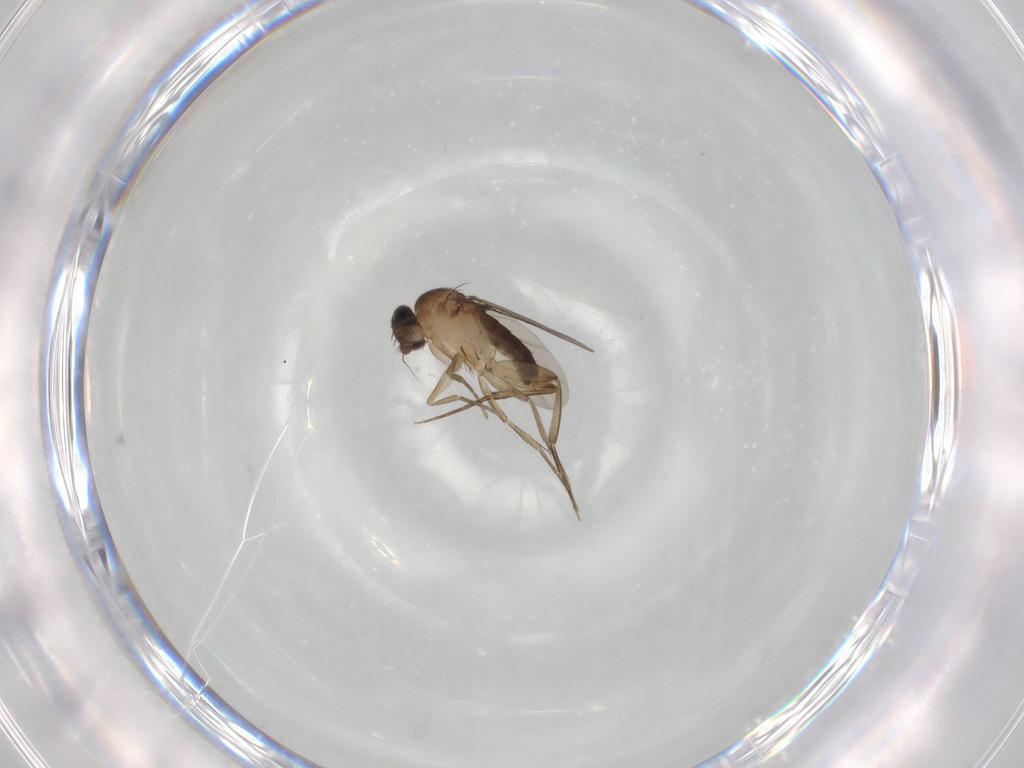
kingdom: Animalia
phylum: Arthropoda
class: Insecta
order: Diptera
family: Phoridae
